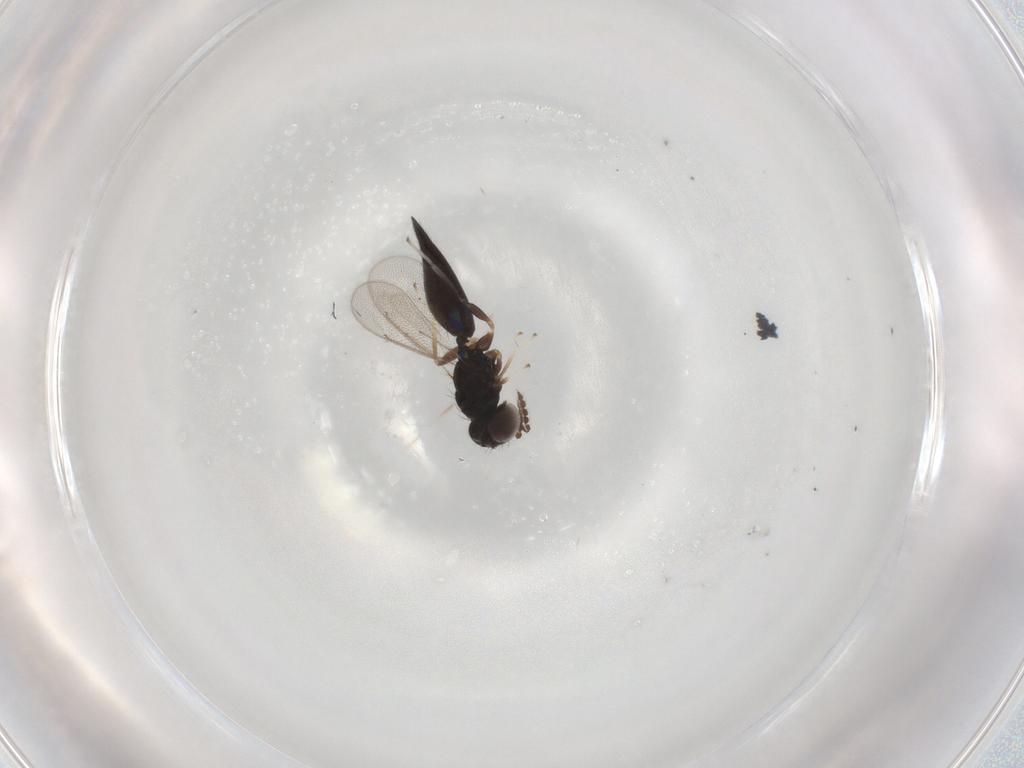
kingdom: Animalia
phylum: Arthropoda
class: Insecta
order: Hymenoptera
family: Eulophidae
